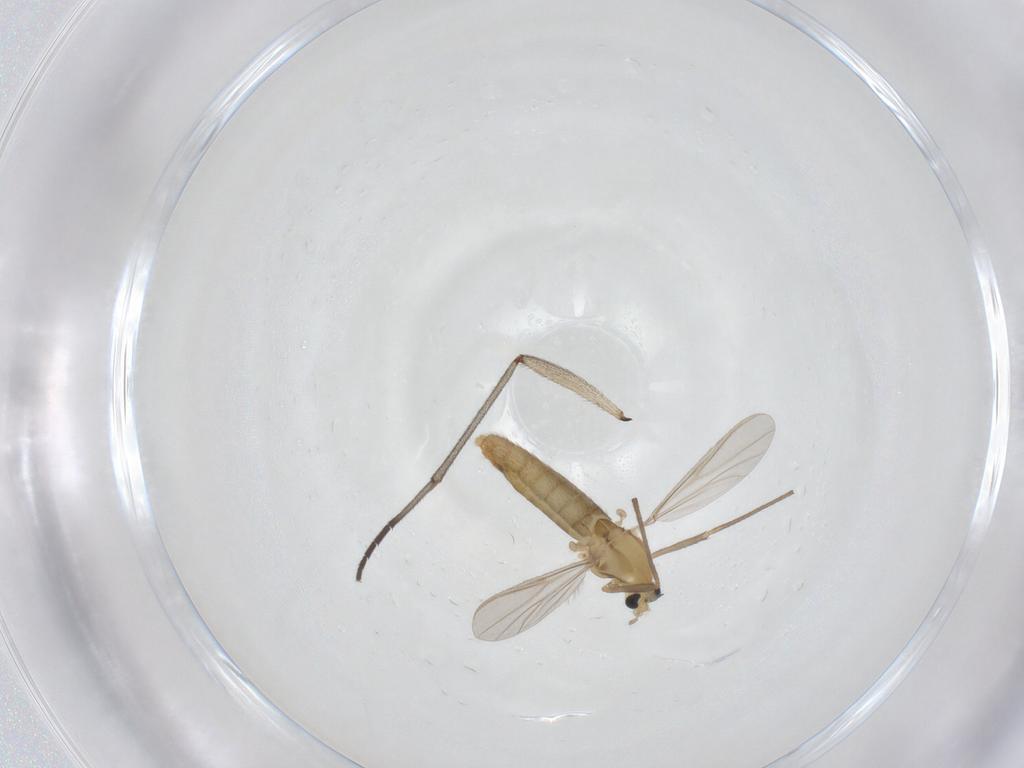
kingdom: Animalia
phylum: Arthropoda
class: Insecta
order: Diptera
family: Sciaridae
